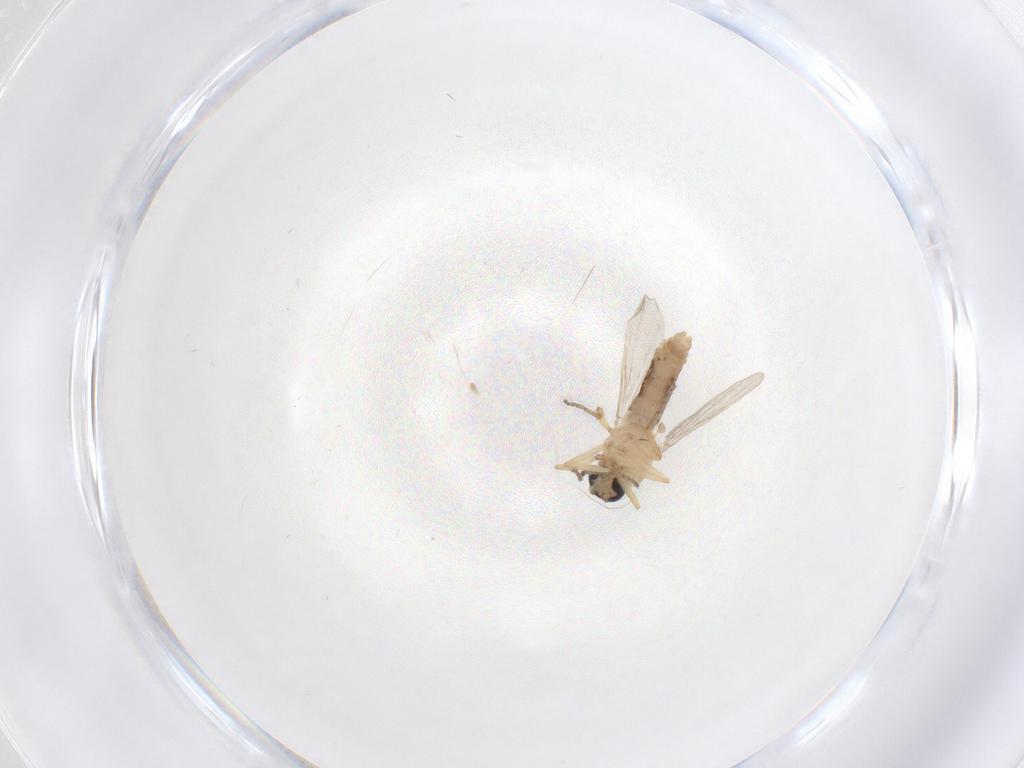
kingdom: Animalia
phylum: Arthropoda
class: Insecta
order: Diptera
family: Ceratopogonidae
